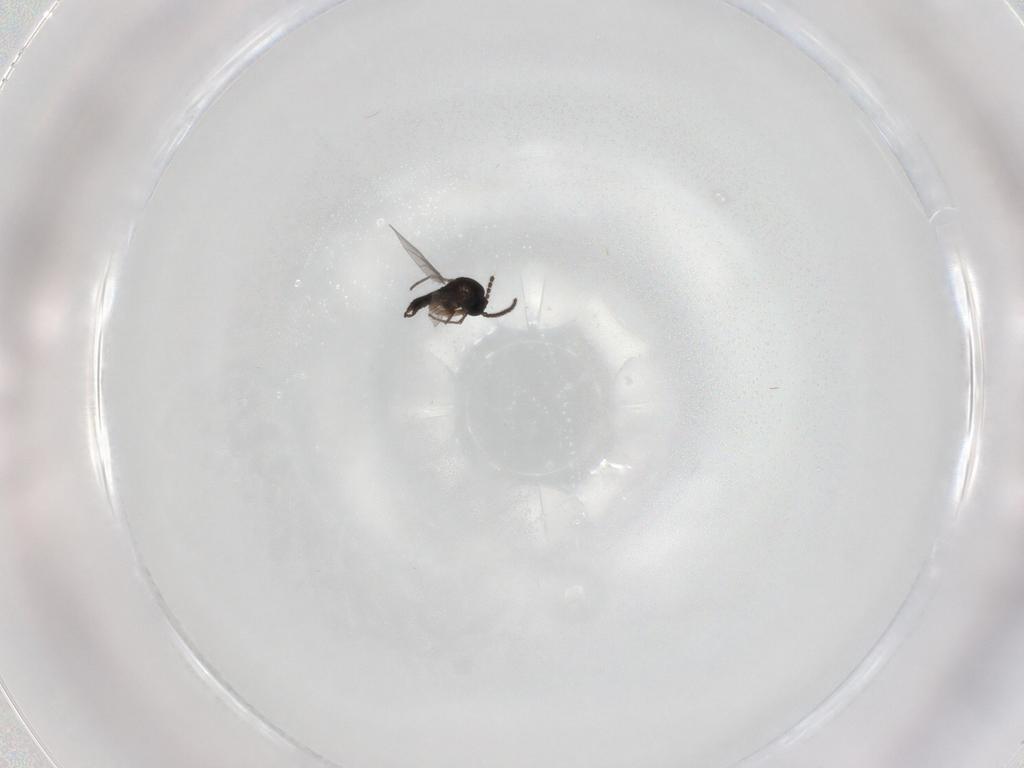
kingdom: Animalia
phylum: Arthropoda
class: Insecta
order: Diptera
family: Sciaridae
